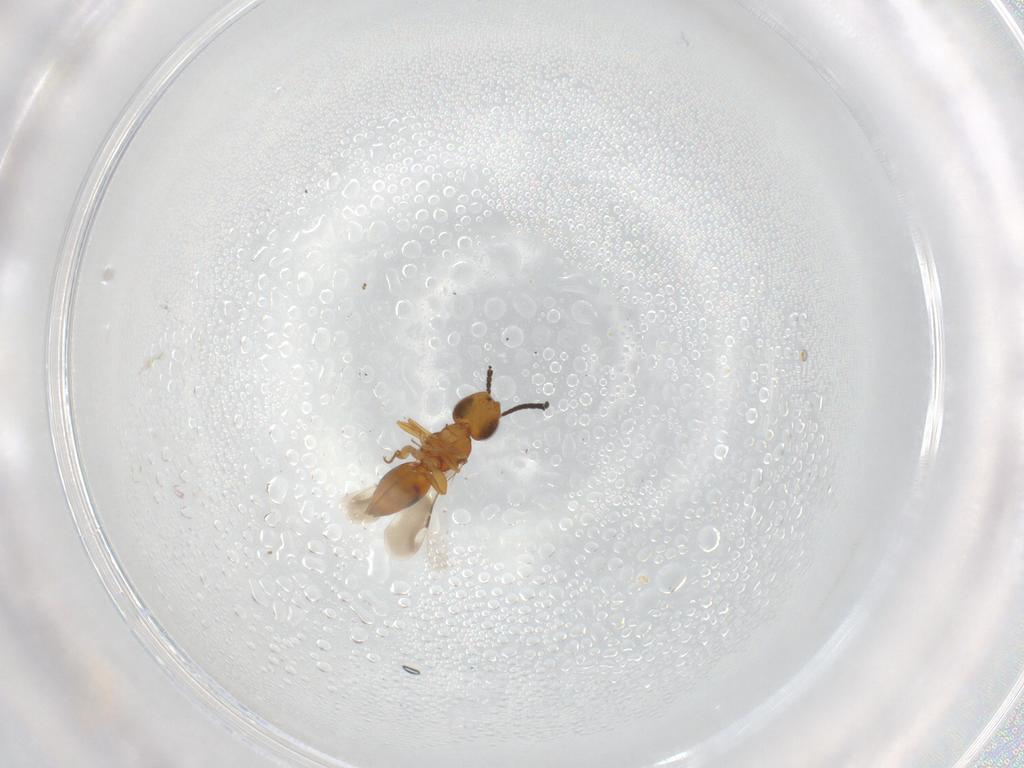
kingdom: Animalia
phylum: Arthropoda
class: Insecta
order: Hymenoptera
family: Ceraphronidae
